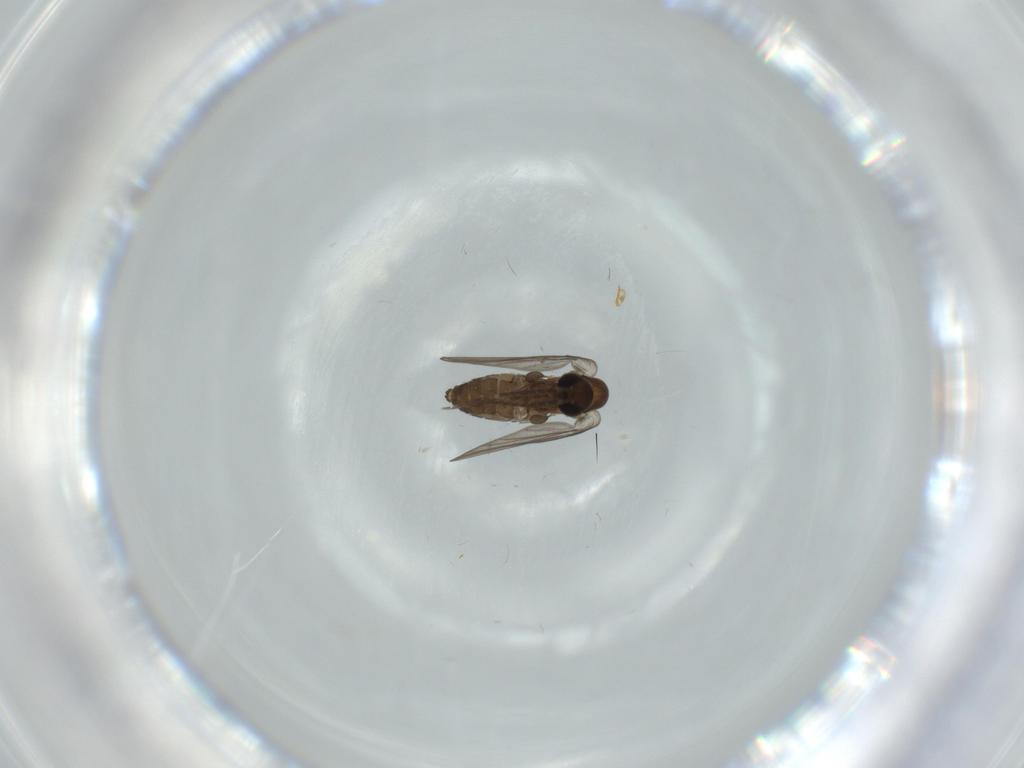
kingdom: Animalia
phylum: Arthropoda
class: Insecta
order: Diptera
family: Psychodidae
